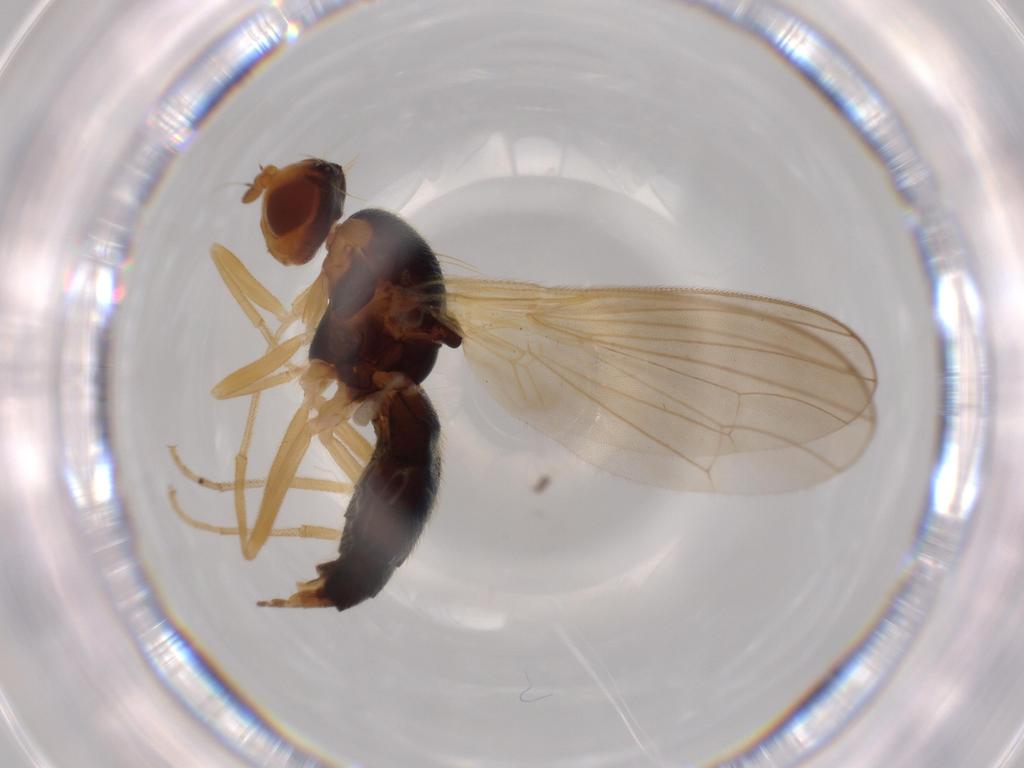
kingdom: Animalia
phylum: Arthropoda
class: Insecta
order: Diptera
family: Psilidae
